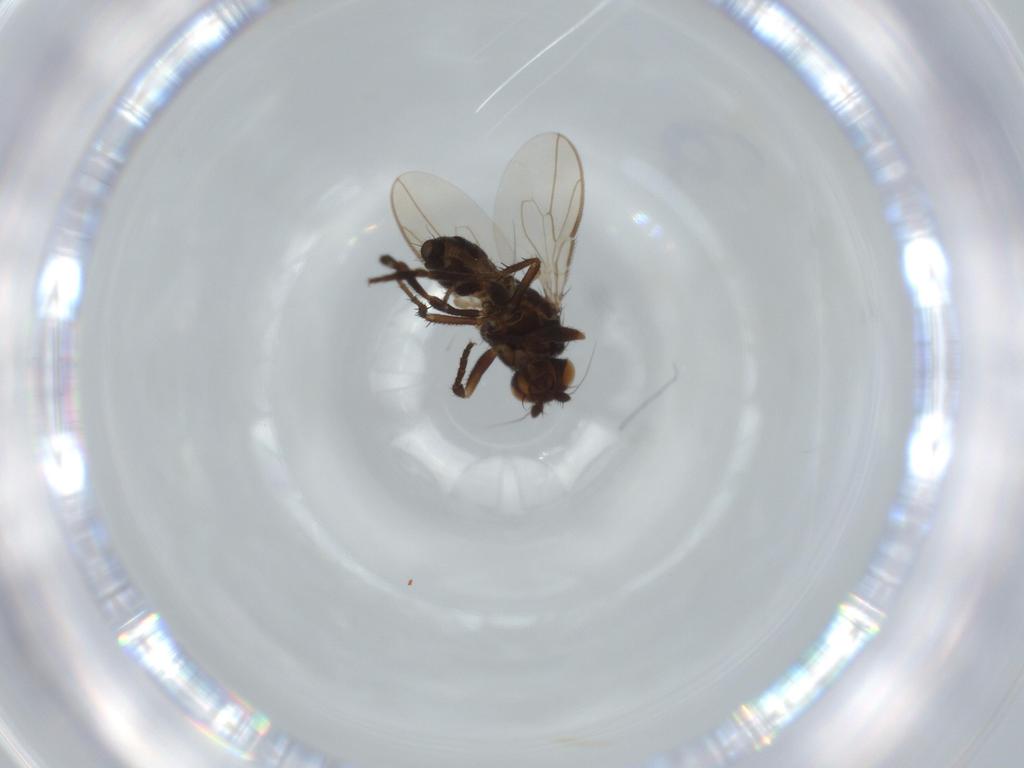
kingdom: Animalia
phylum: Arthropoda
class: Insecta
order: Diptera
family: Sphaeroceridae
